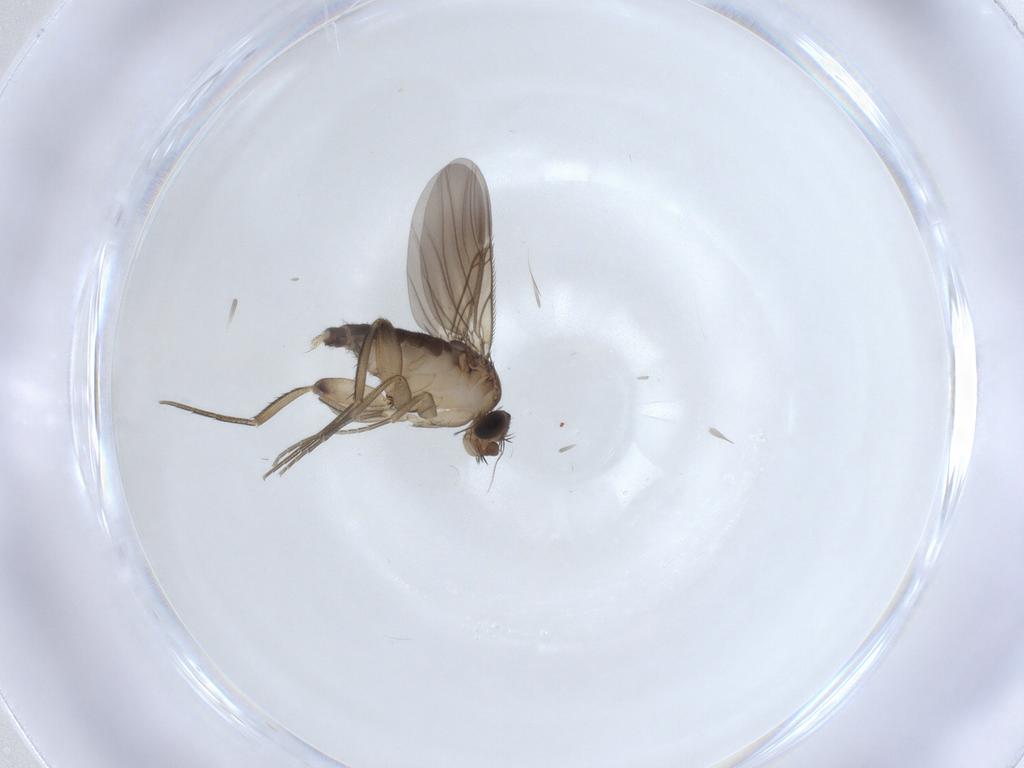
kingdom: Animalia
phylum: Arthropoda
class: Insecta
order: Diptera
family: Phoridae
